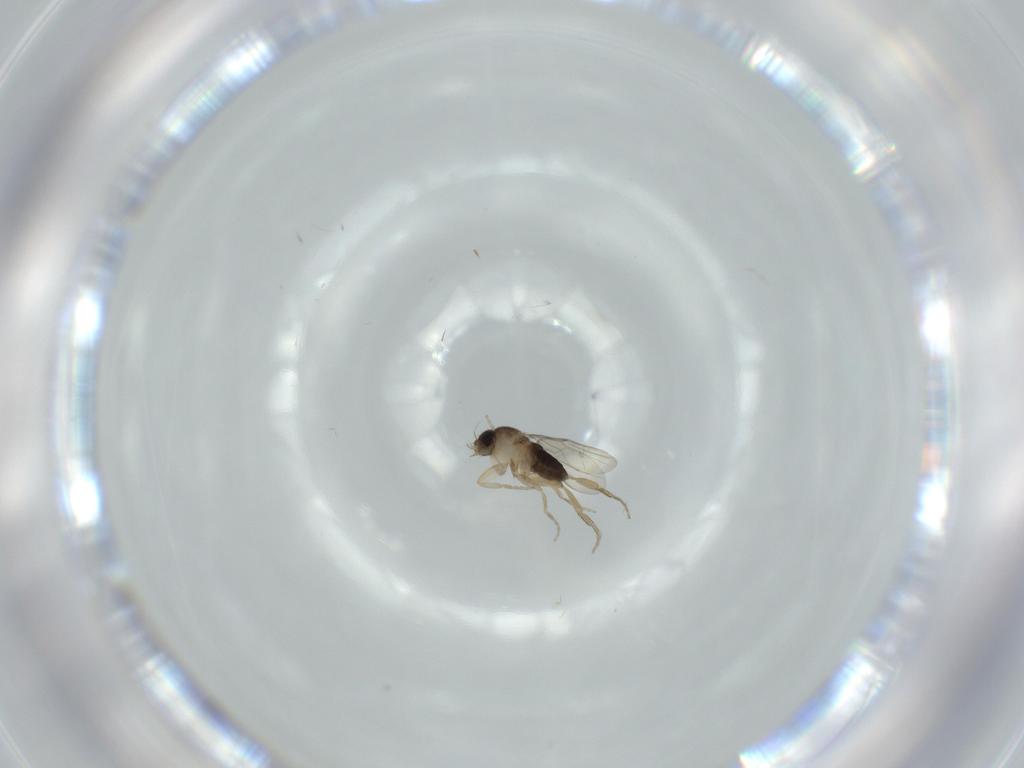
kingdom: Animalia
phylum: Arthropoda
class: Insecta
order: Diptera
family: Phoridae
